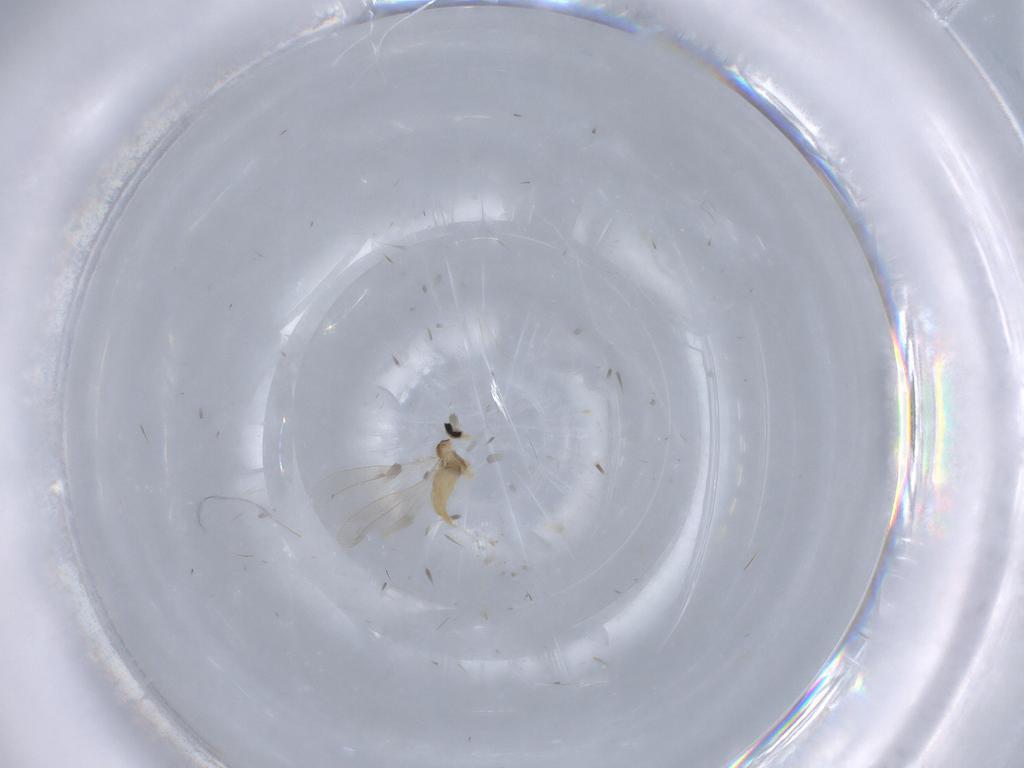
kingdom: Animalia
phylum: Arthropoda
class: Insecta
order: Diptera
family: Cecidomyiidae
